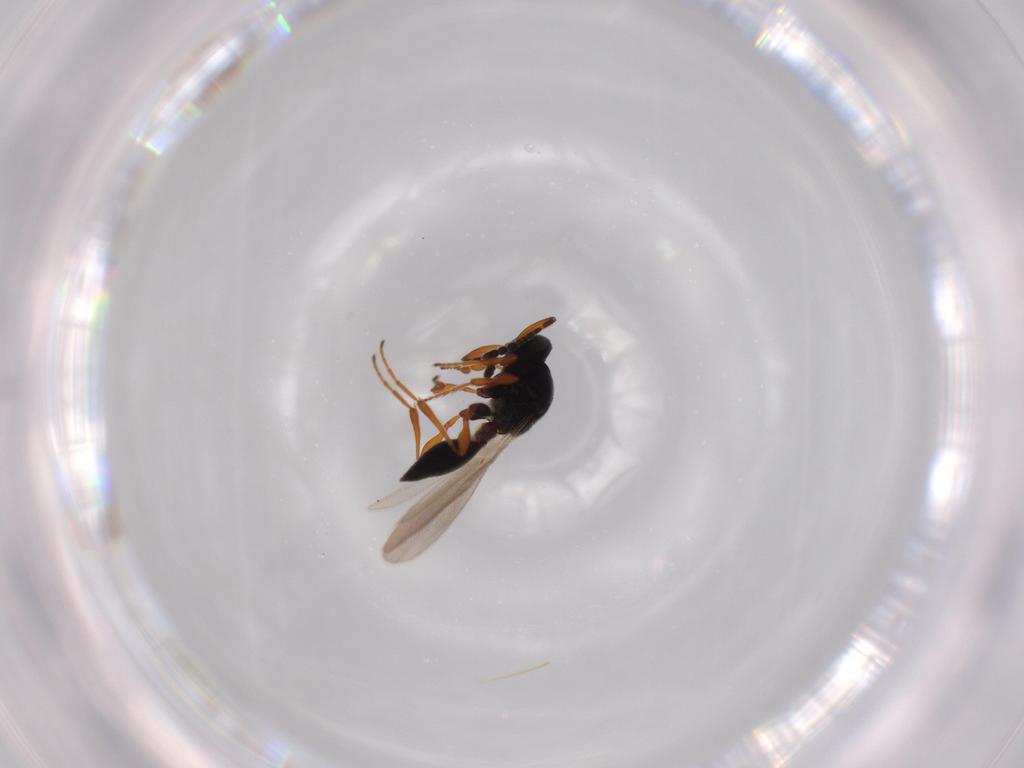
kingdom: Animalia
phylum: Arthropoda
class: Insecta
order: Hymenoptera
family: Platygastridae
